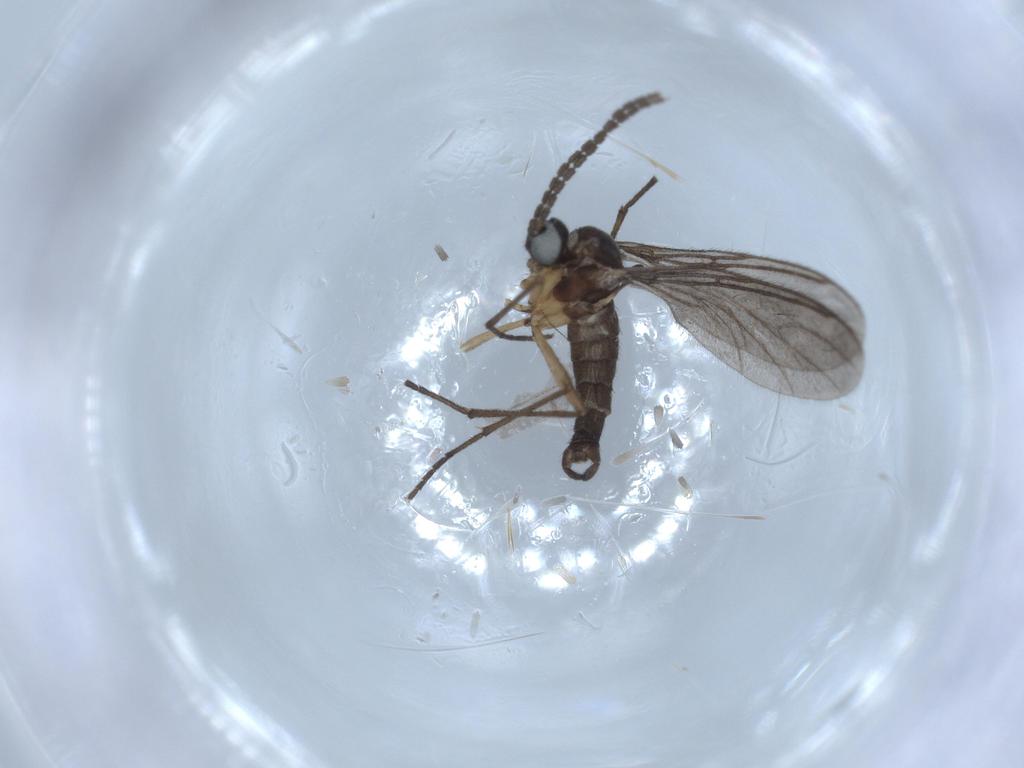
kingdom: Animalia
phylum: Arthropoda
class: Insecta
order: Diptera
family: Sciaridae
